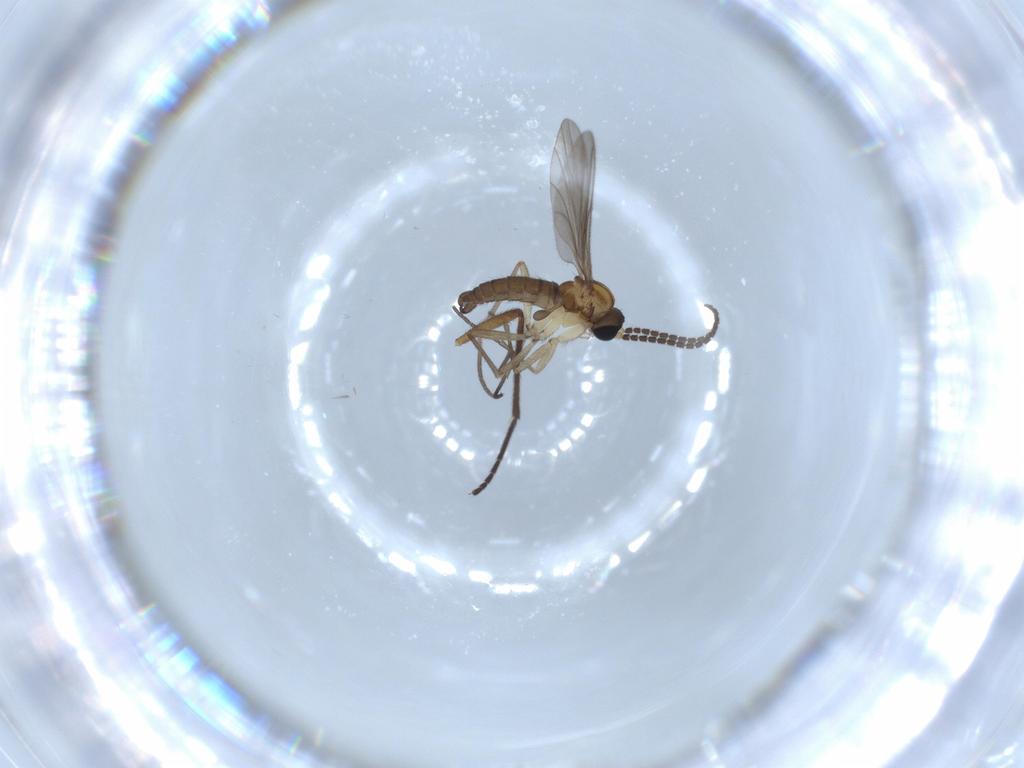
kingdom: Animalia
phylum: Arthropoda
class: Insecta
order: Diptera
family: Sciaridae
